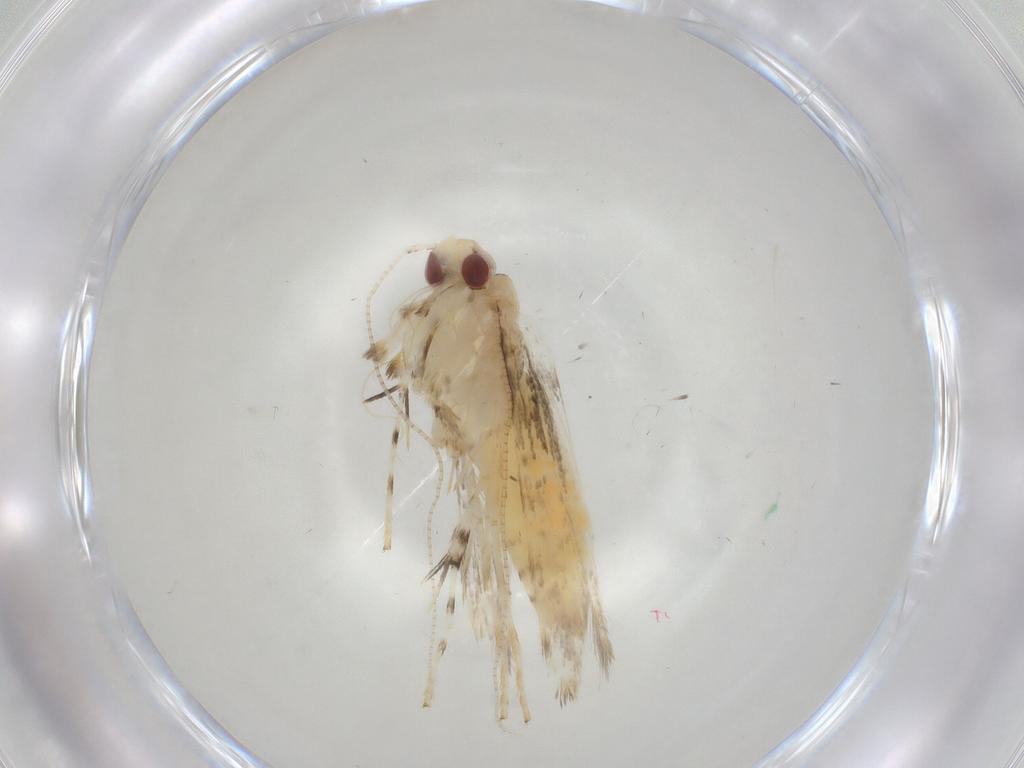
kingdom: Animalia
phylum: Arthropoda
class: Insecta
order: Lepidoptera
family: Gracillariidae
